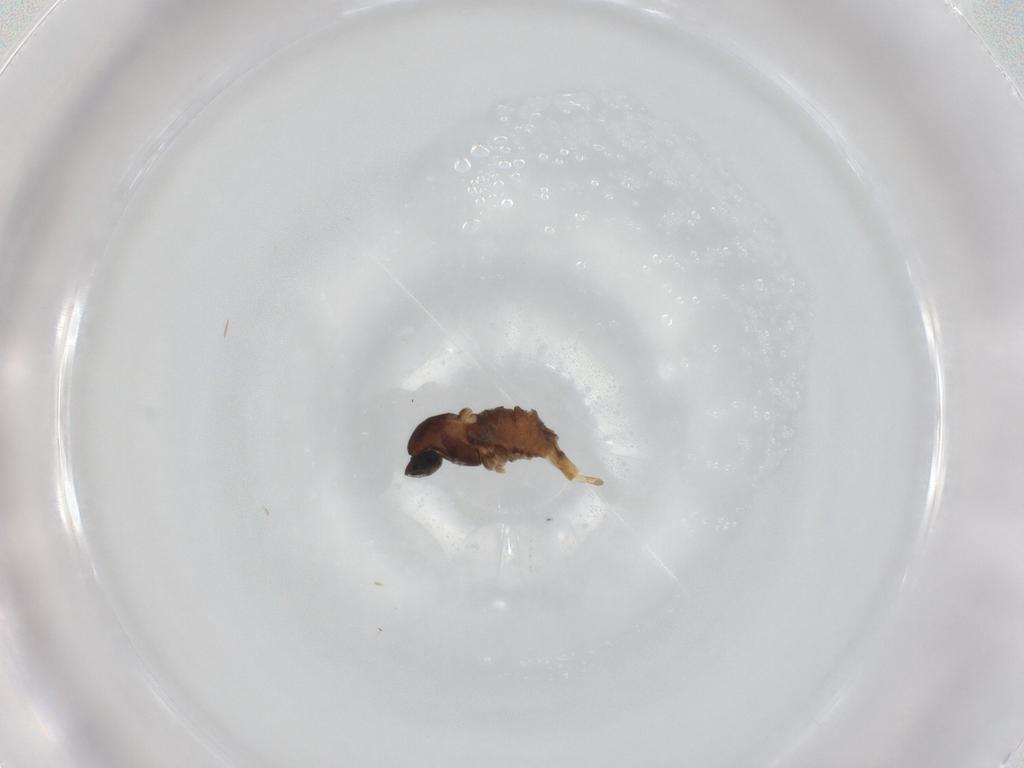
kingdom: Animalia
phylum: Arthropoda
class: Insecta
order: Diptera
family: Cecidomyiidae
